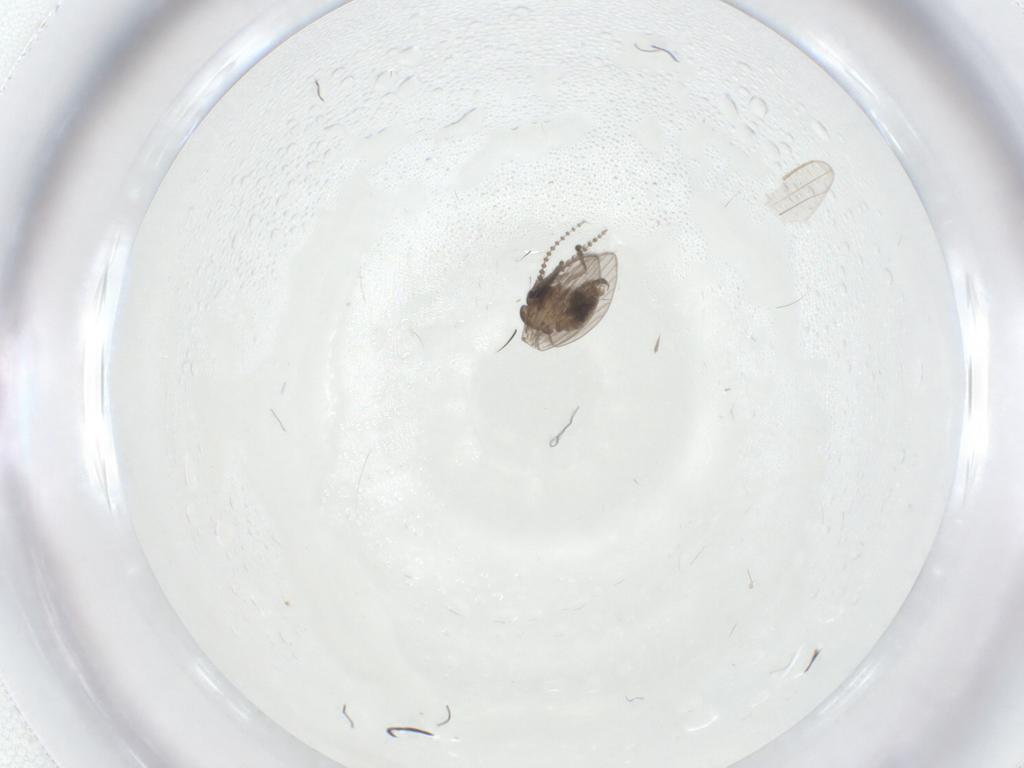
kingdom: Animalia
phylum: Arthropoda
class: Insecta
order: Diptera
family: Psychodidae
